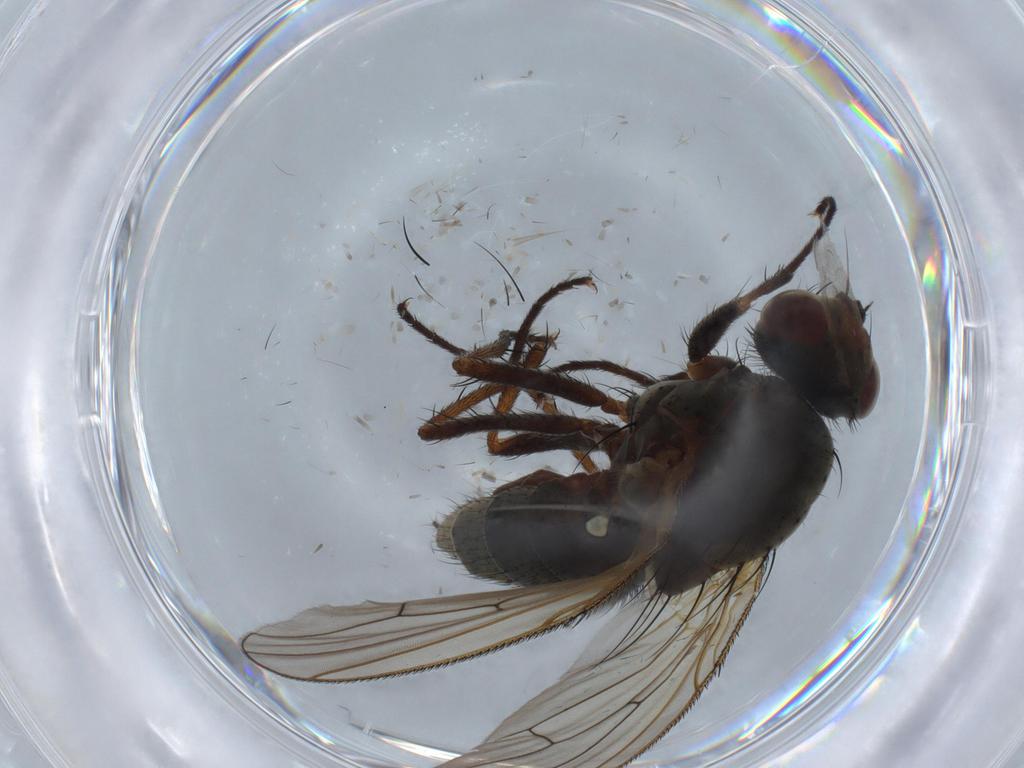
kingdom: Animalia
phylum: Arthropoda
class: Insecta
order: Diptera
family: Anthomyiidae
